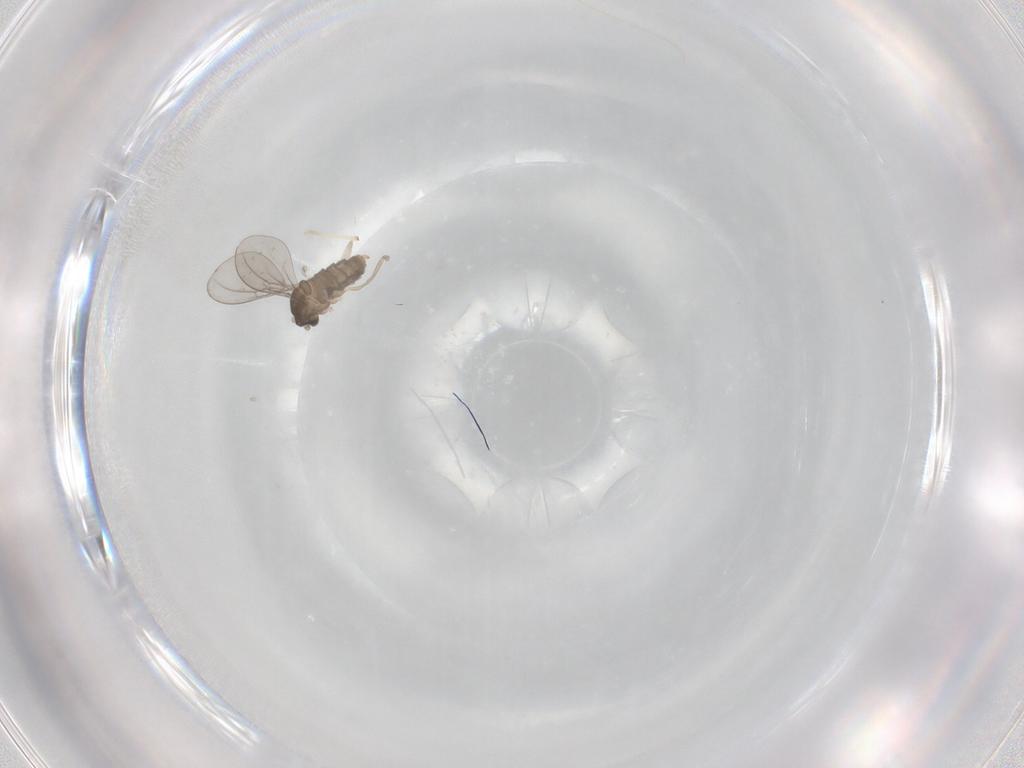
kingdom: Animalia
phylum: Arthropoda
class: Insecta
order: Diptera
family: Cecidomyiidae
